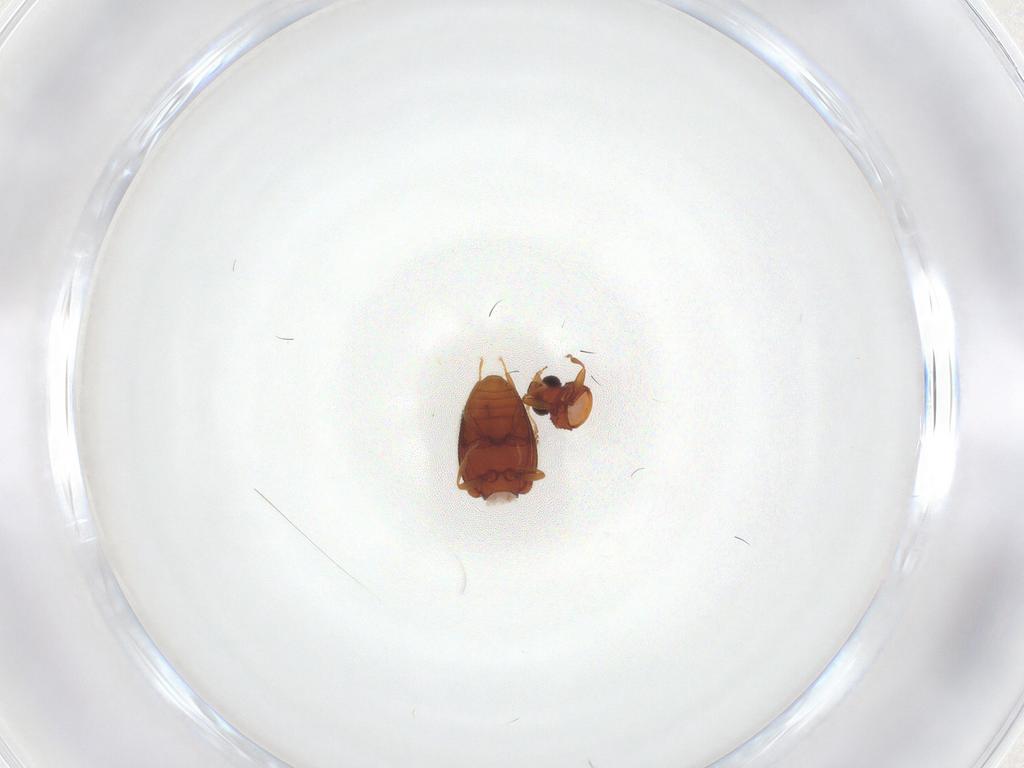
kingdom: Animalia
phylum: Arthropoda
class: Insecta
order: Coleoptera
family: Latridiidae
